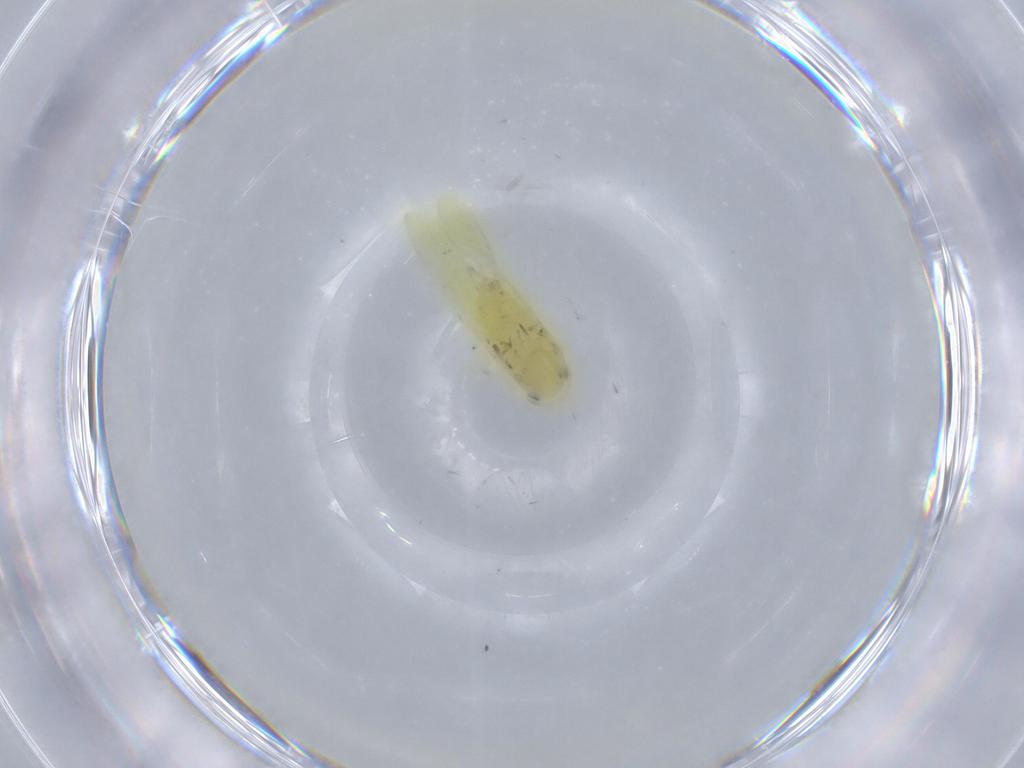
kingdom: Animalia
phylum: Arthropoda
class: Insecta
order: Hemiptera
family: Cicadellidae
